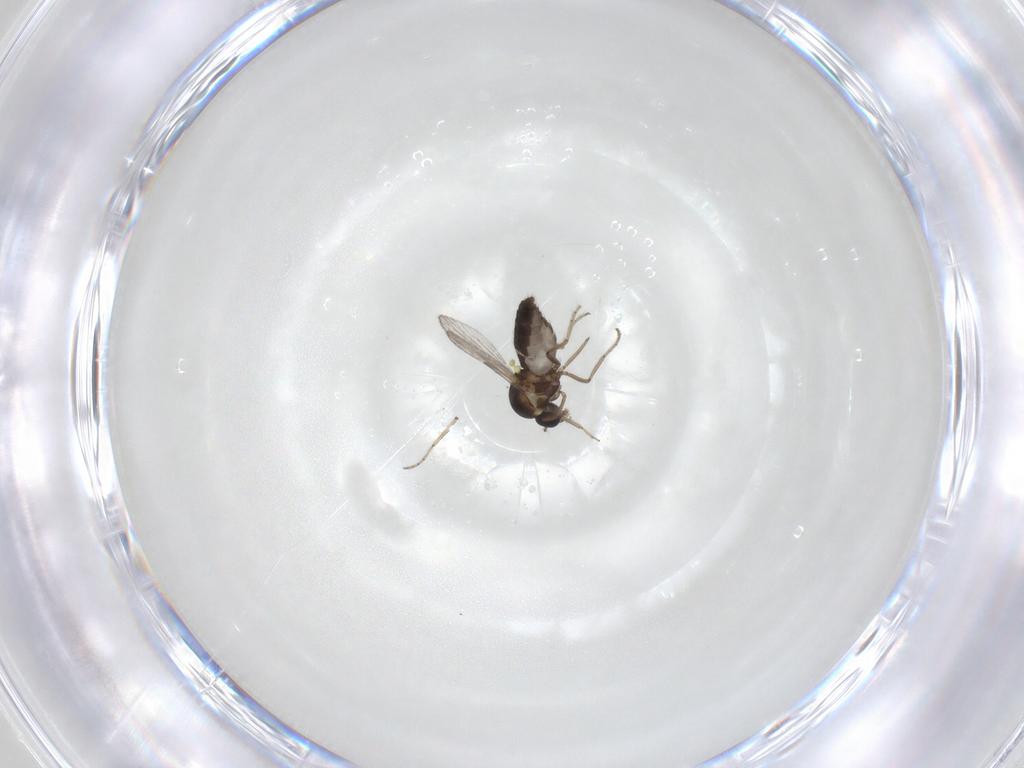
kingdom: Animalia
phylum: Arthropoda
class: Insecta
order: Diptera
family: Ceratopogonidae
